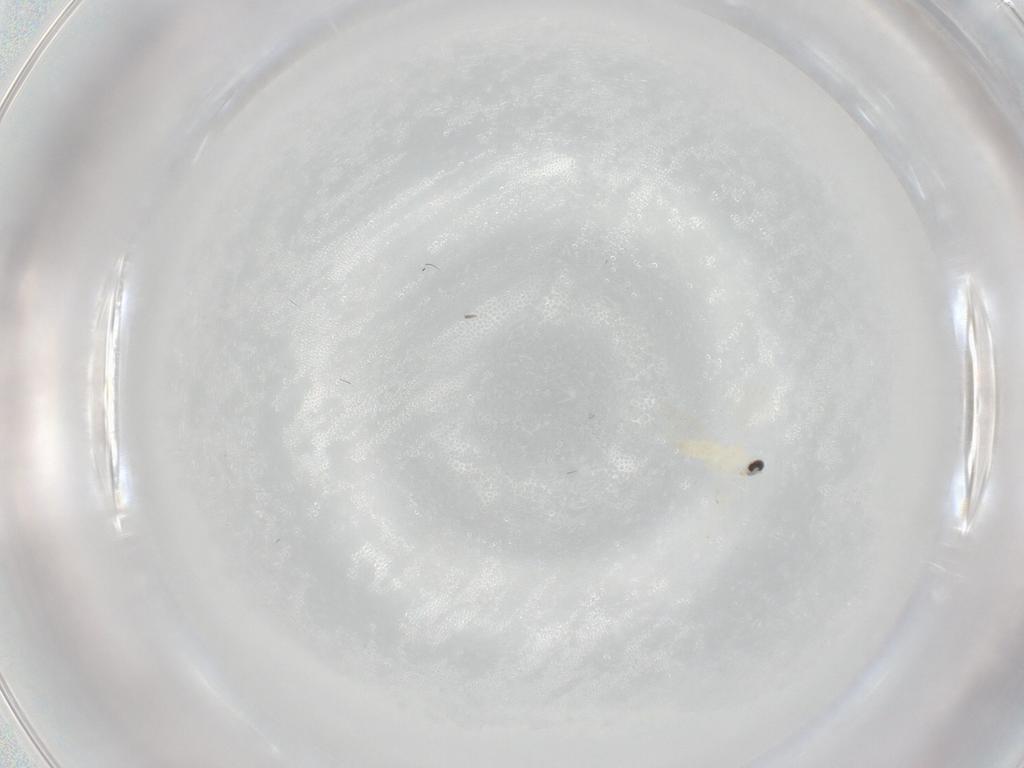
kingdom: Animalia
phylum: Arthropoda
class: Insecta
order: Diptera
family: Cecidomyiidae
